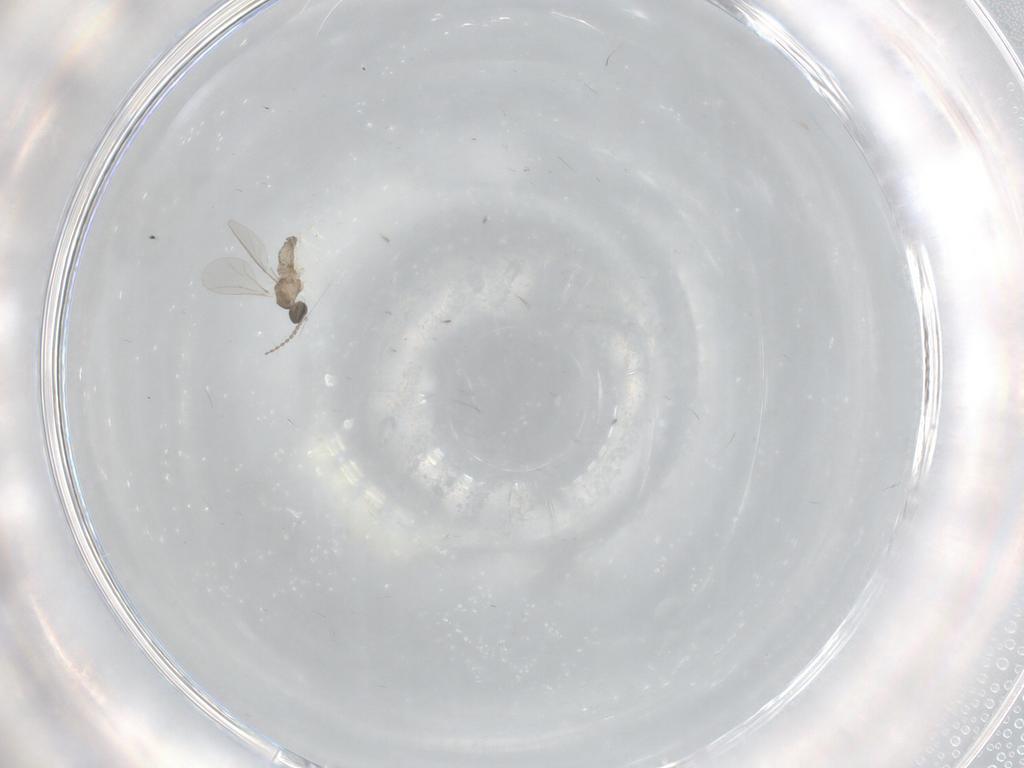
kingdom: Animalia
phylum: Arthropoda
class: Insecta
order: Diptera
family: Cecidomyiidae
